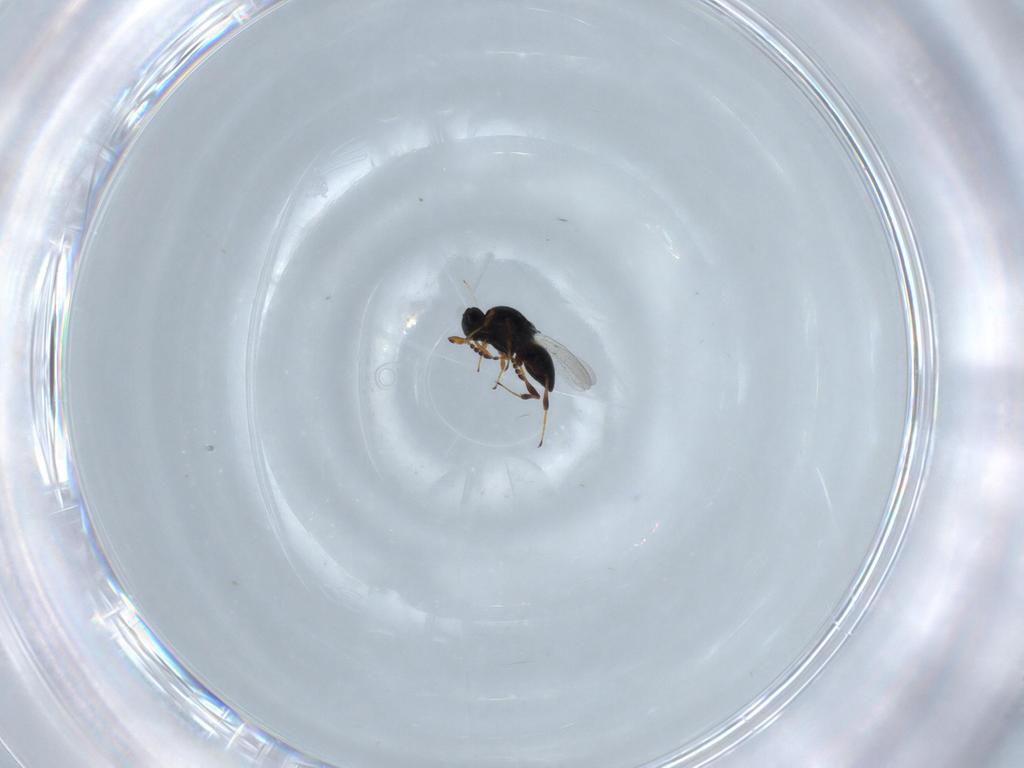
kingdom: Animalia
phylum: Arthropoda
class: Insecta
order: Hymenoptera
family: Platygastridae
